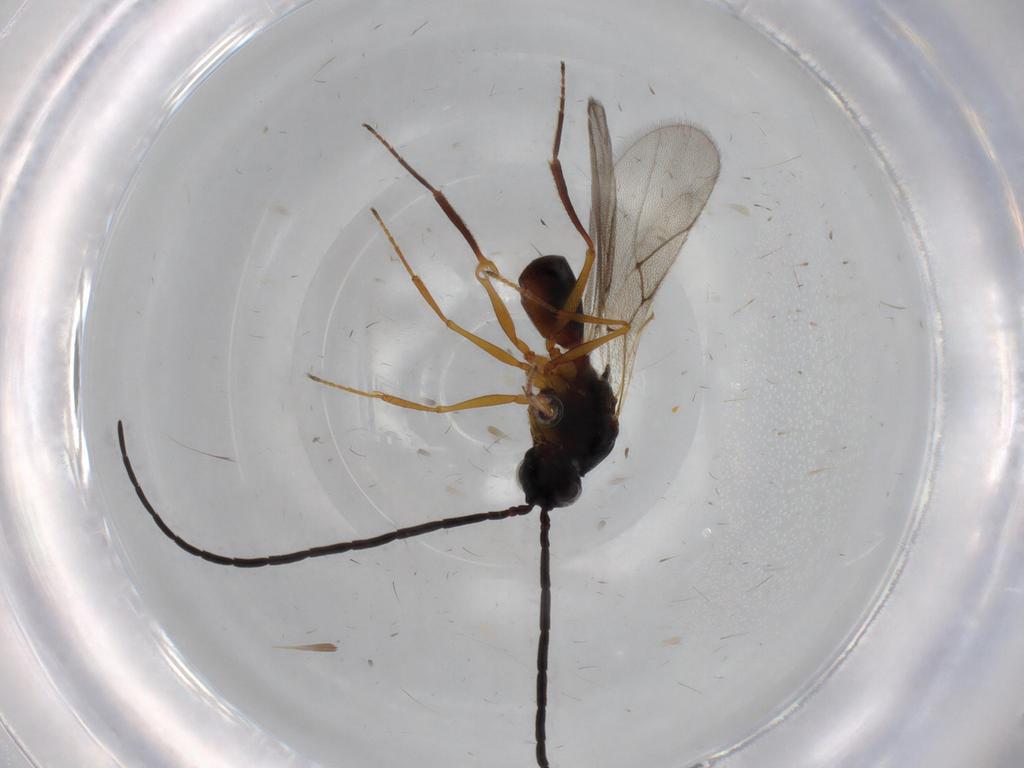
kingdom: Animalia
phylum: Arthropoda
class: Insecta
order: Hymenoptera
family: Figitidae
